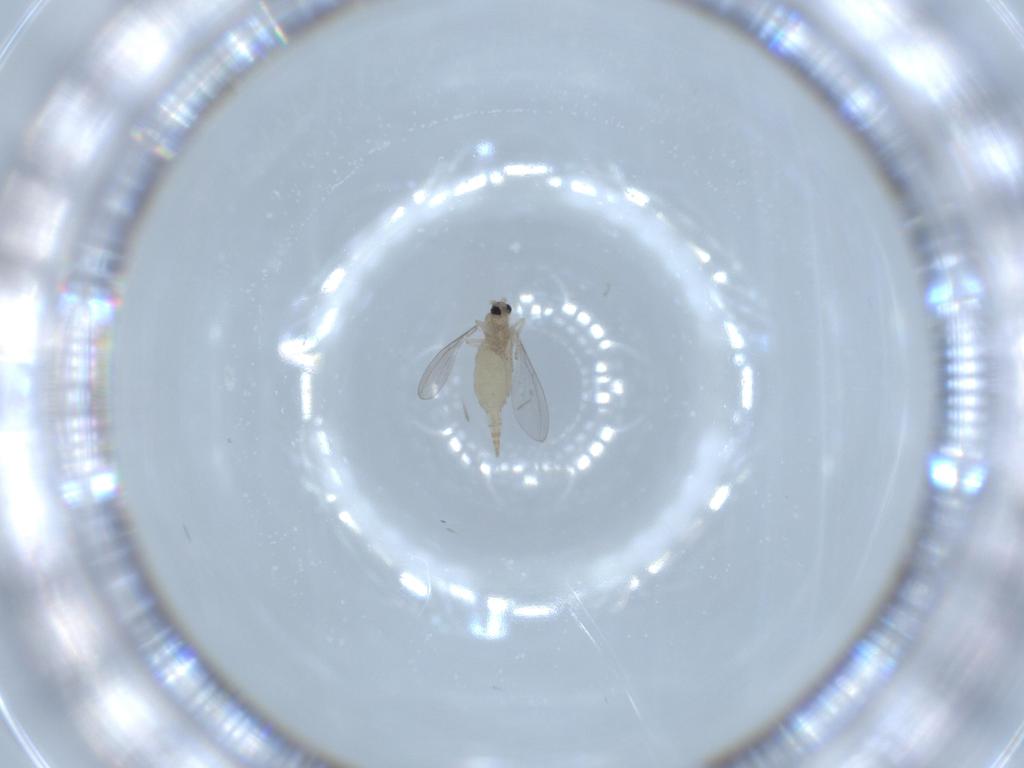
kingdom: Animalia
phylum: Arthropoda
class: Insecta
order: Diptera
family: Cecidomyiidae
